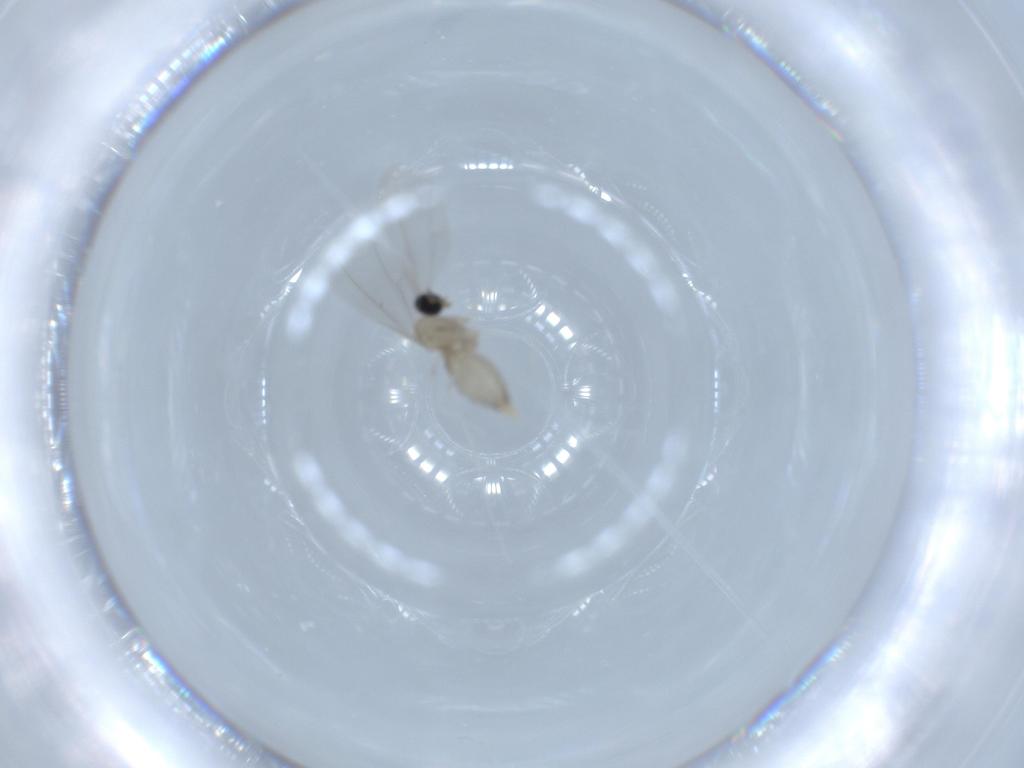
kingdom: Animalia
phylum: Arthropoda
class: Insecta
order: Diptera
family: Cecidomyiidae
